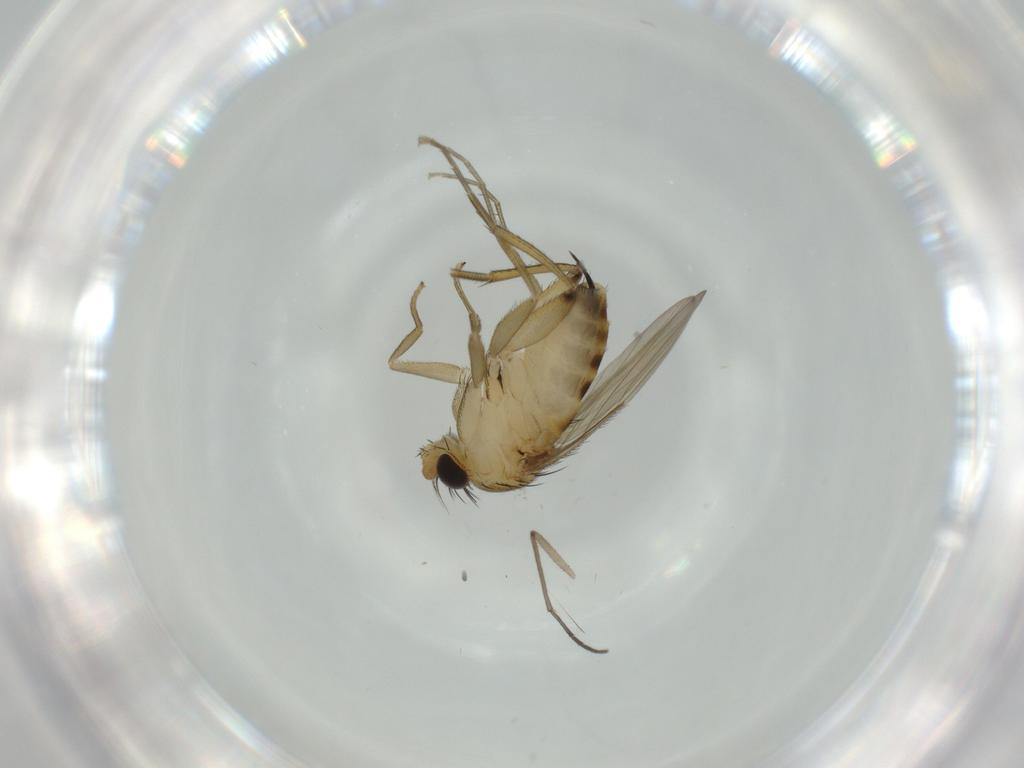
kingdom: Animalia
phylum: Arthropoda
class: Insecta
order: Diptera
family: Phoridae
